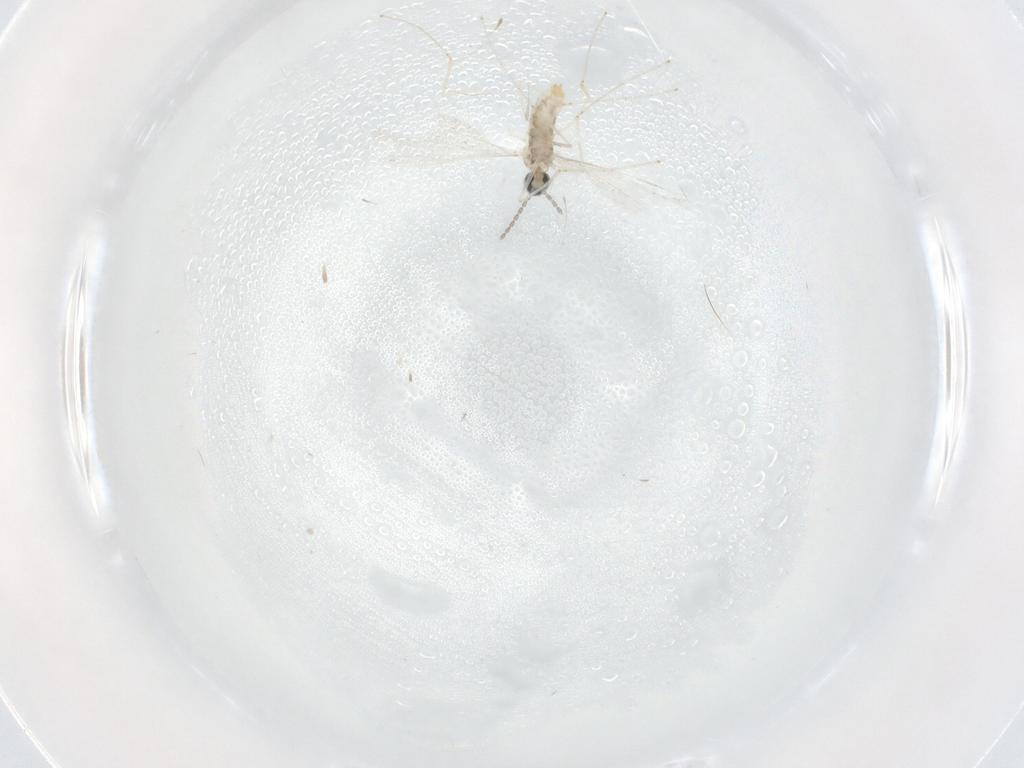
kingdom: Animalia
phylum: Arthropoda
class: Insecta
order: Diptera
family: Cecidomyiidae
